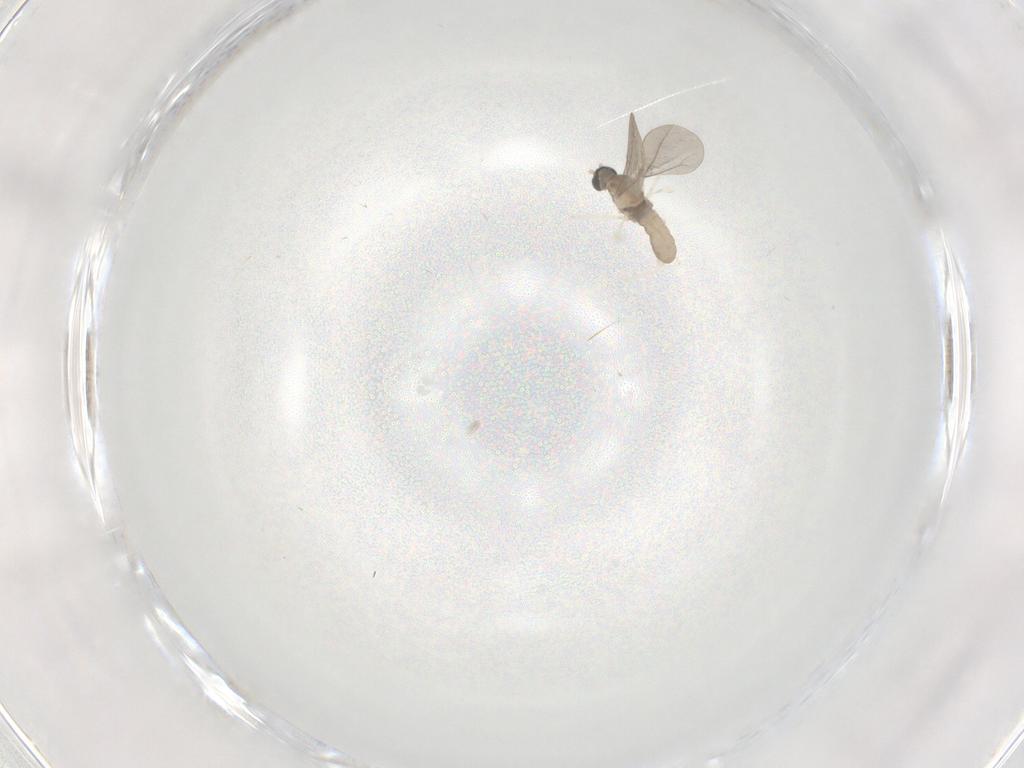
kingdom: Animalia
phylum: Arthropoda
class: Insecta
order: Diptera
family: Cecidomyiidae
